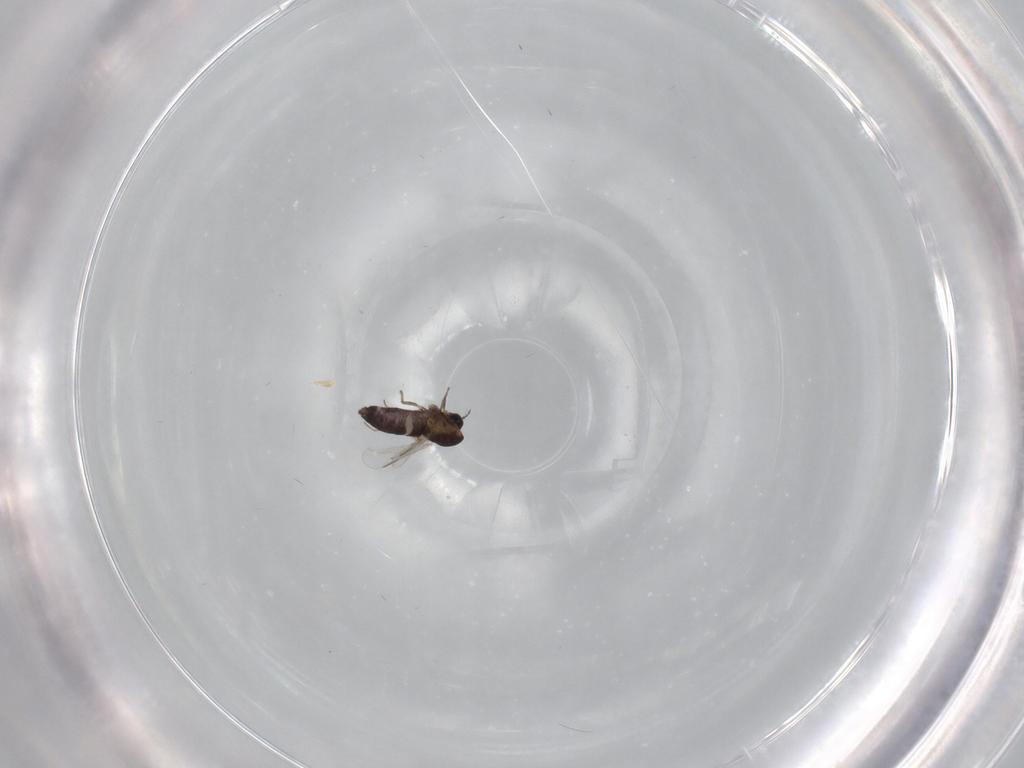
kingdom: Animalia
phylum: Arthropoda
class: Insecta
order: Diptera
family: Chironomidae
